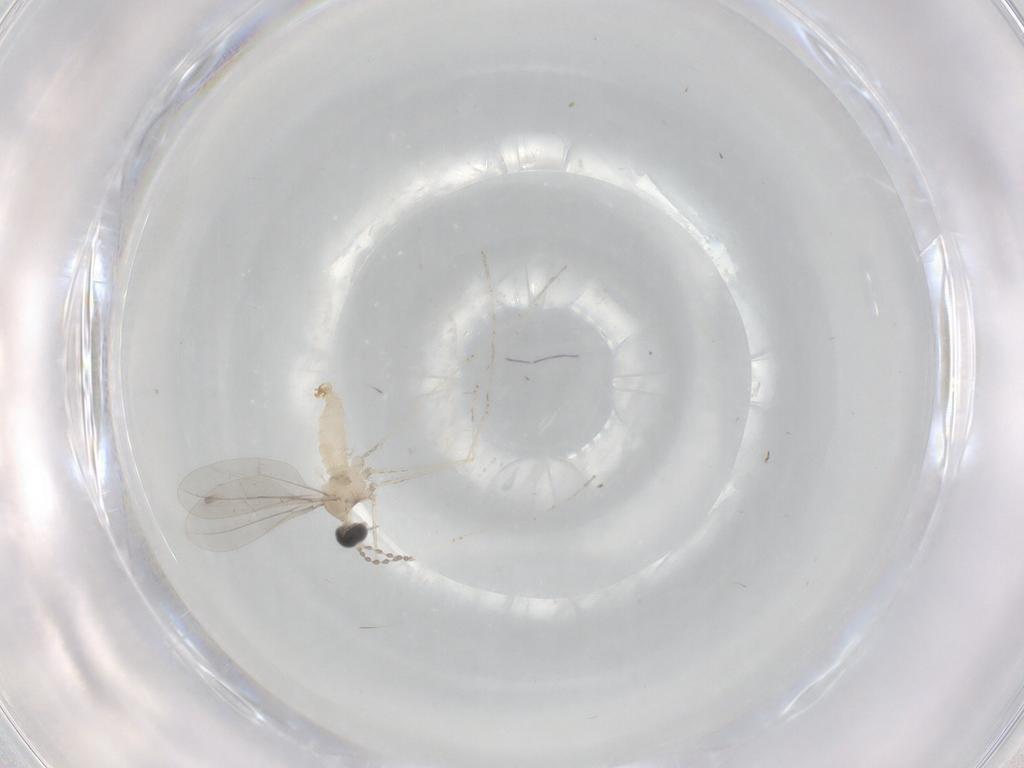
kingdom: Animalia
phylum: Arthropoda
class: Insecta
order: Diptera
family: Cecidomyiidae
